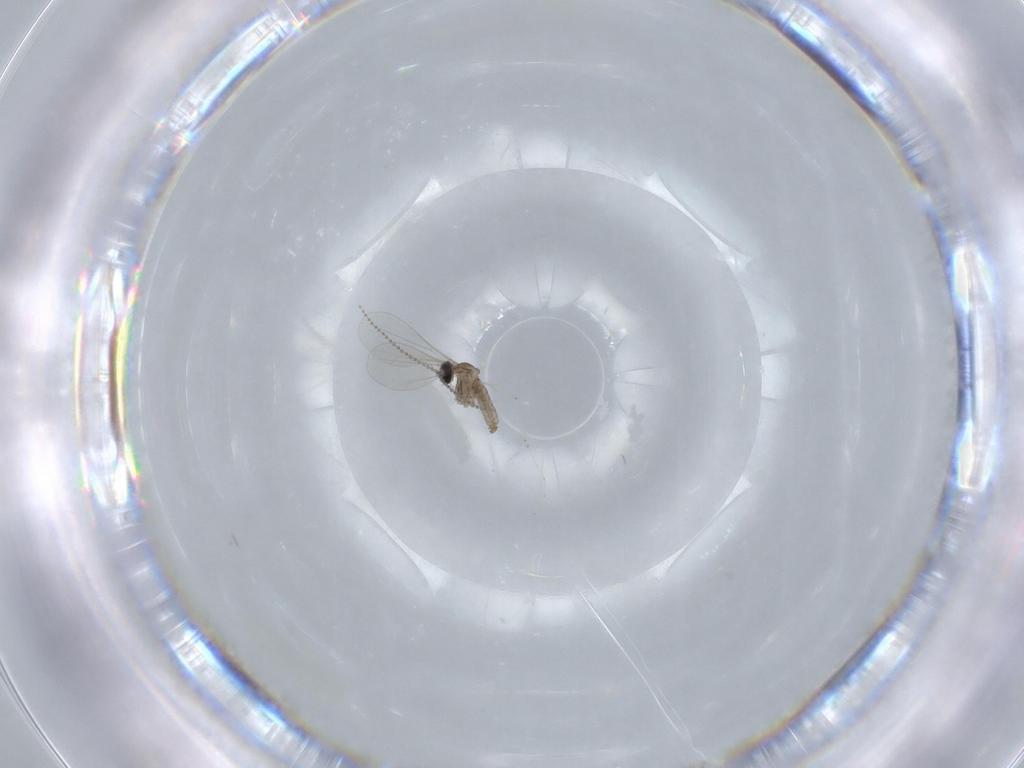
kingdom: Animalia
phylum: Arthropoda
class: Insecta
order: Diptera
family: Cecidomyiidae
